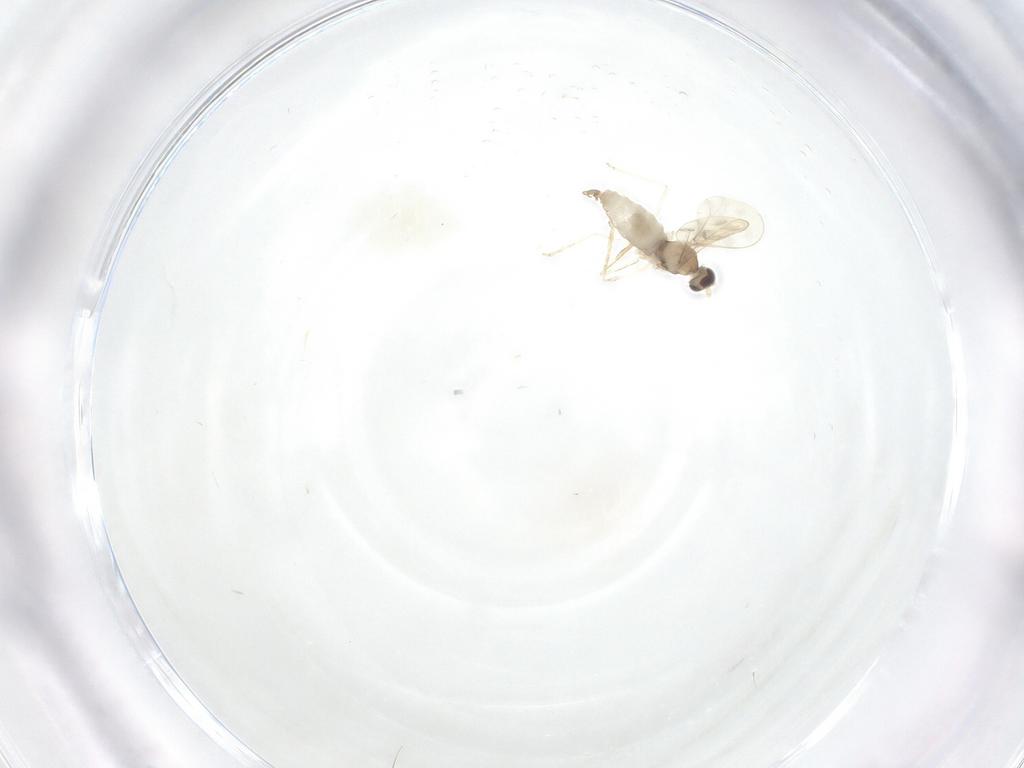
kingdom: Animalia
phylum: Arthropoda
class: Insecta
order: Diptera
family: Cecidomyiidae
